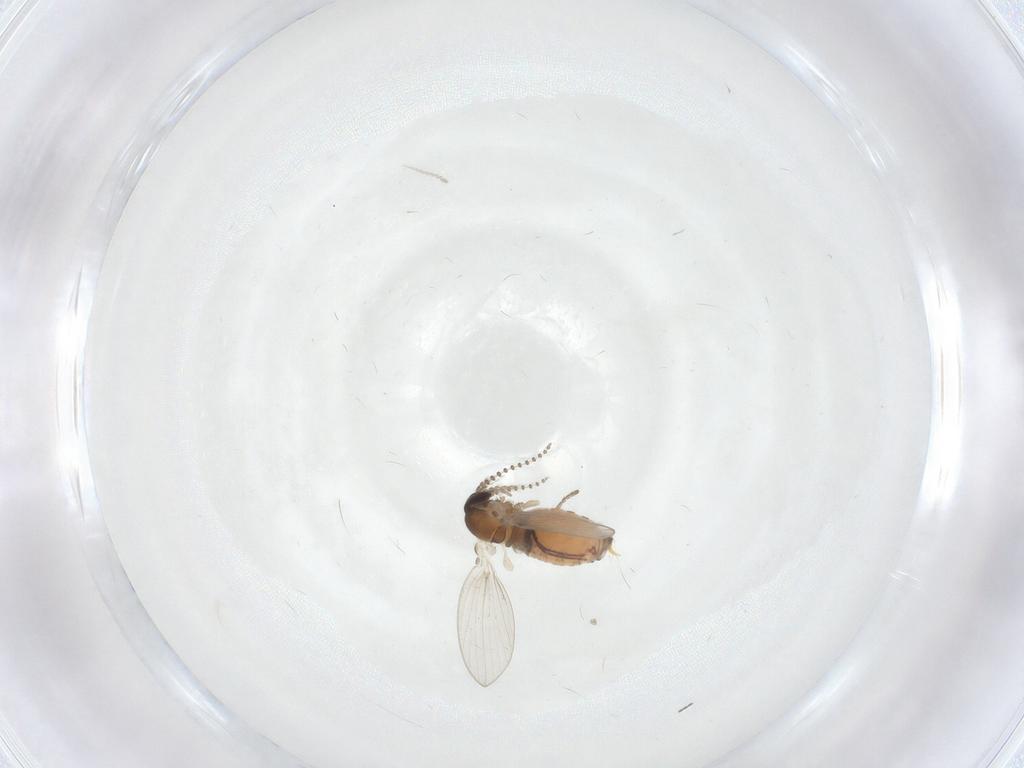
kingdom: Animalia
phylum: Arthropoda
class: Insecta
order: Diptera
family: Psychodidae
